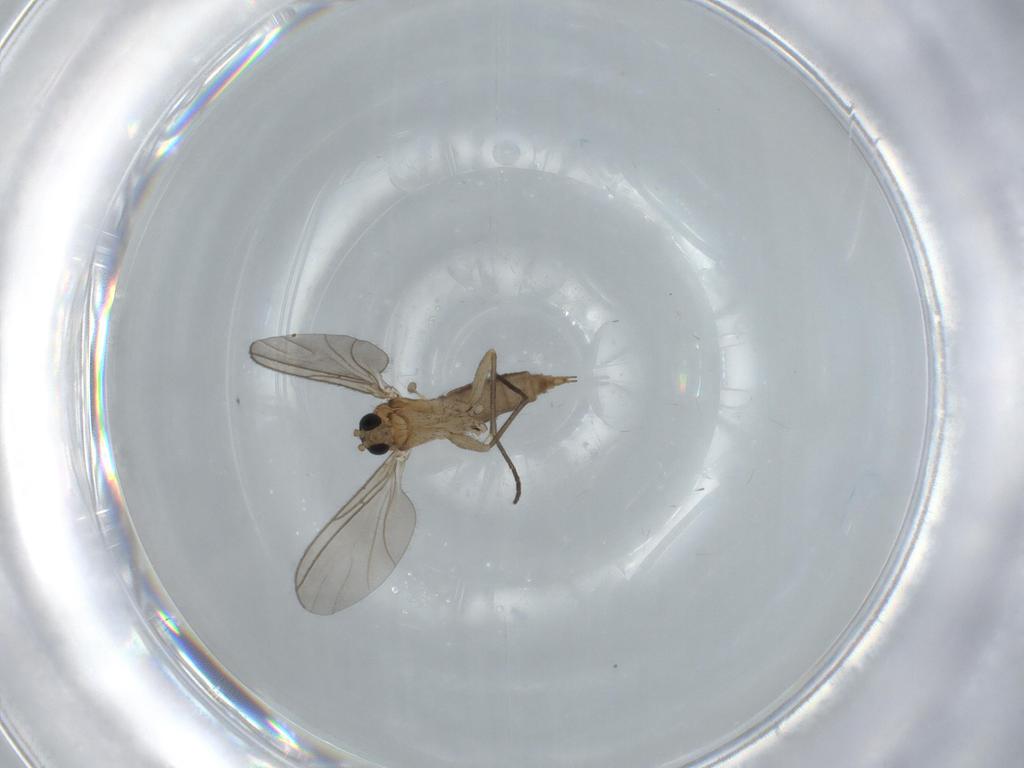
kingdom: Animalia
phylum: Arthropoda
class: Insecta
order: Diptera
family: Sciaridae
